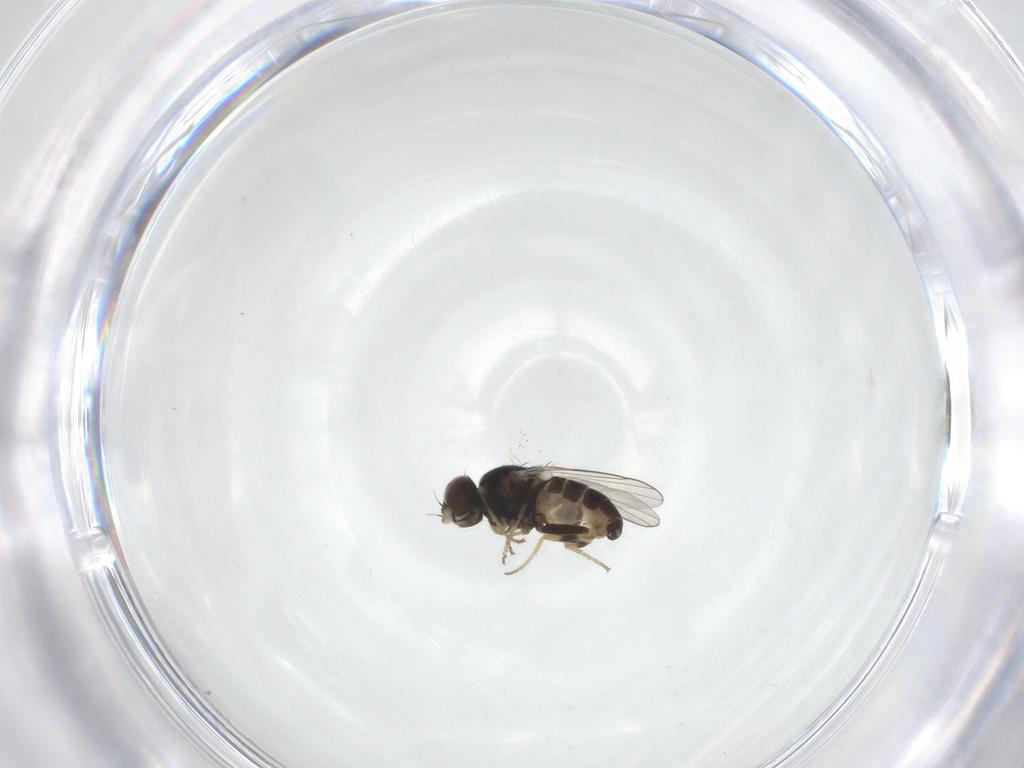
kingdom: Animalia
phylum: Arthropoda
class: Insecta
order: Diptera
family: Chloropidae
